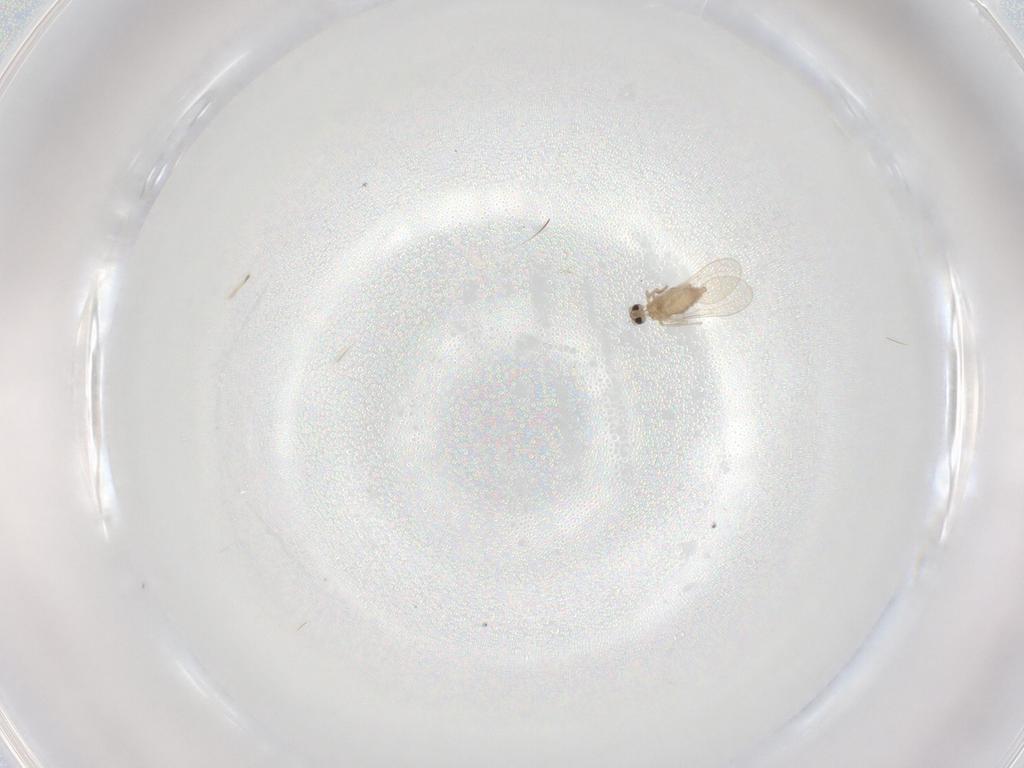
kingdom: Animalia
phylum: Arthropoda
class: Insecta
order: Diptera
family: Cecidomyiidae
